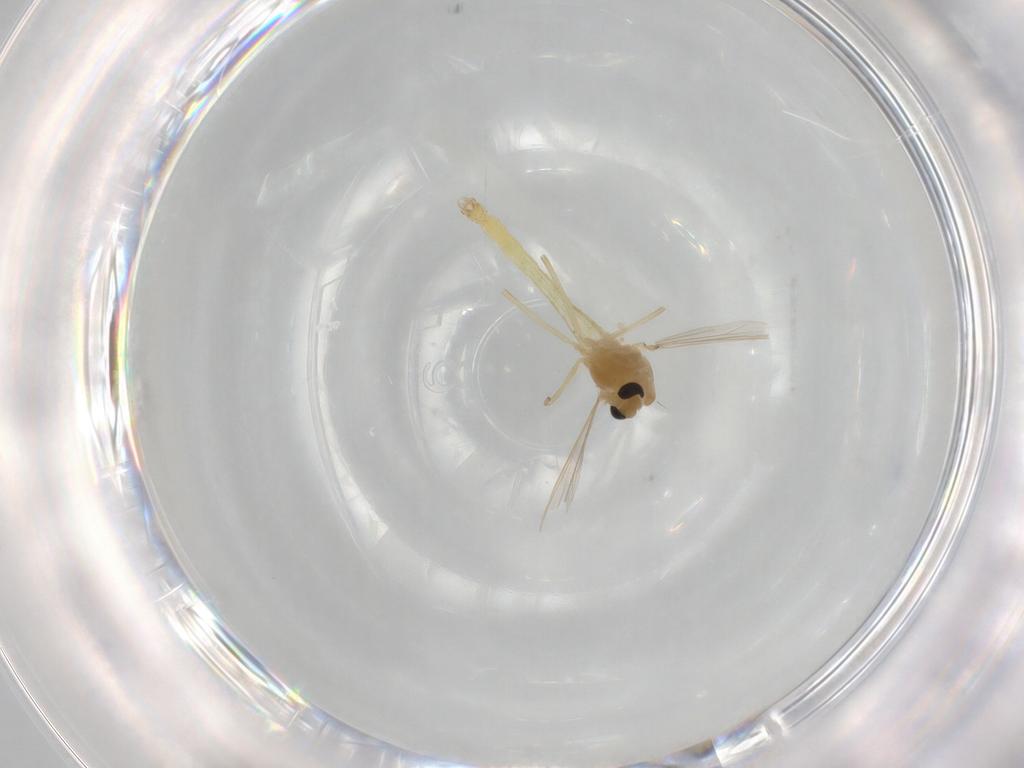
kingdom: Animalia
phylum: Arthropoda
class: Insecta
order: Diptera
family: Chironomidae
